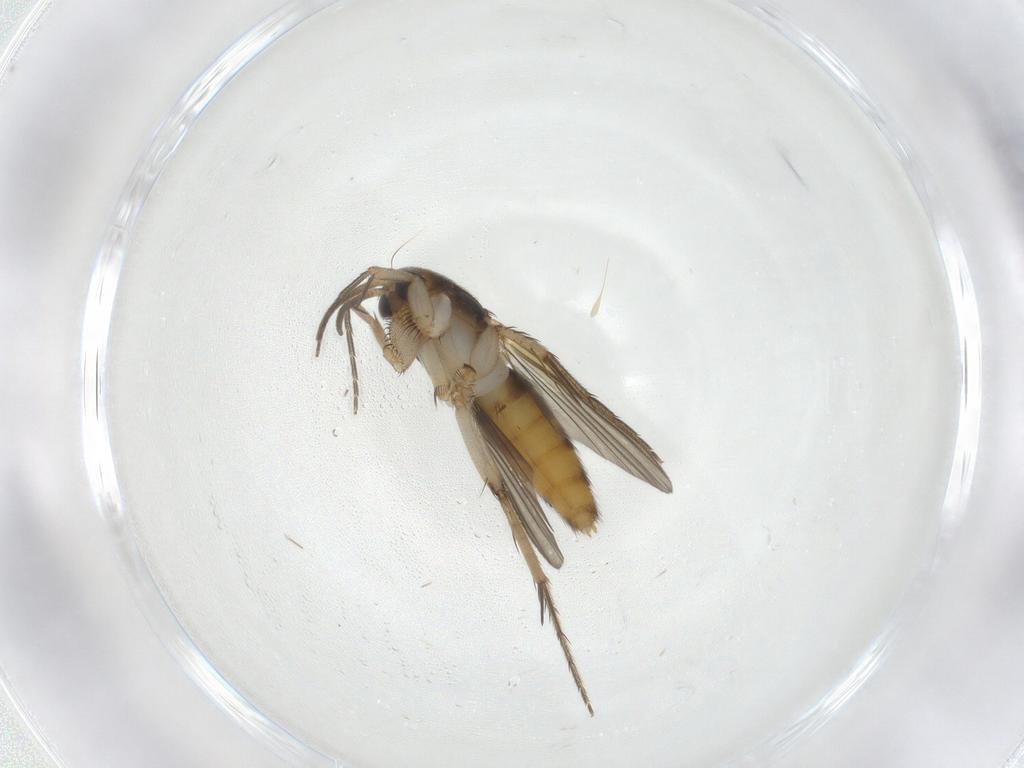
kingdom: Animalia
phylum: Arthropoda
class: Insecta
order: Diptera
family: Mycetophilidae
